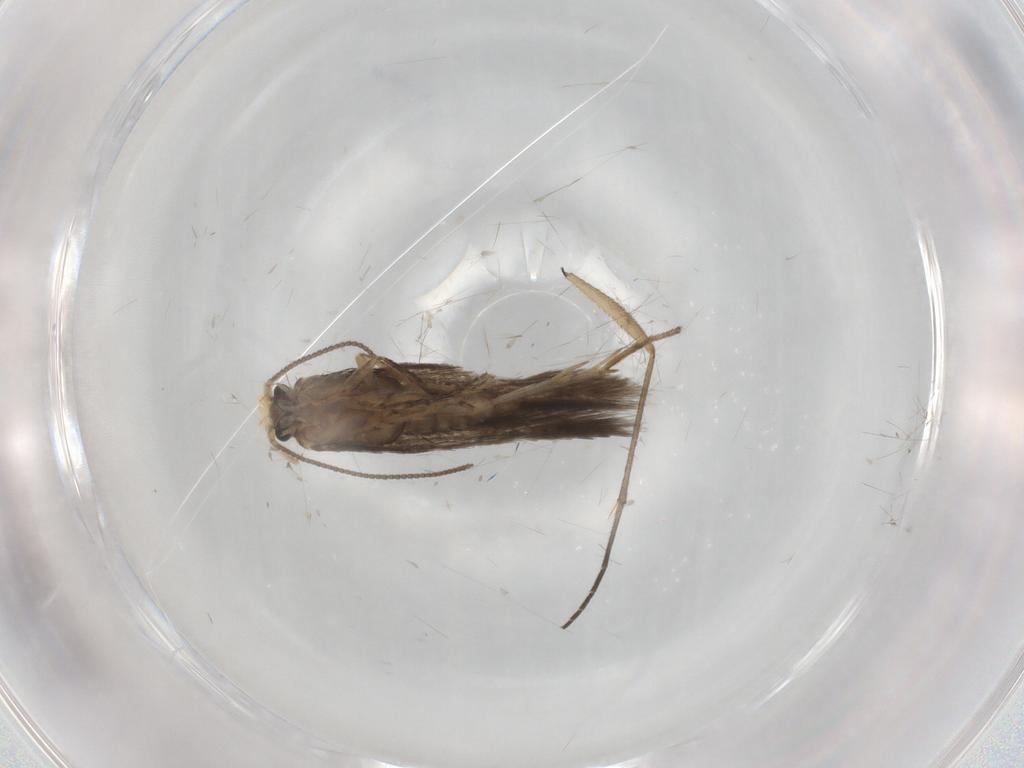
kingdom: Animalia
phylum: Arthropoda
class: Insecta
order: Lepidoptera
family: Nepticulidae
